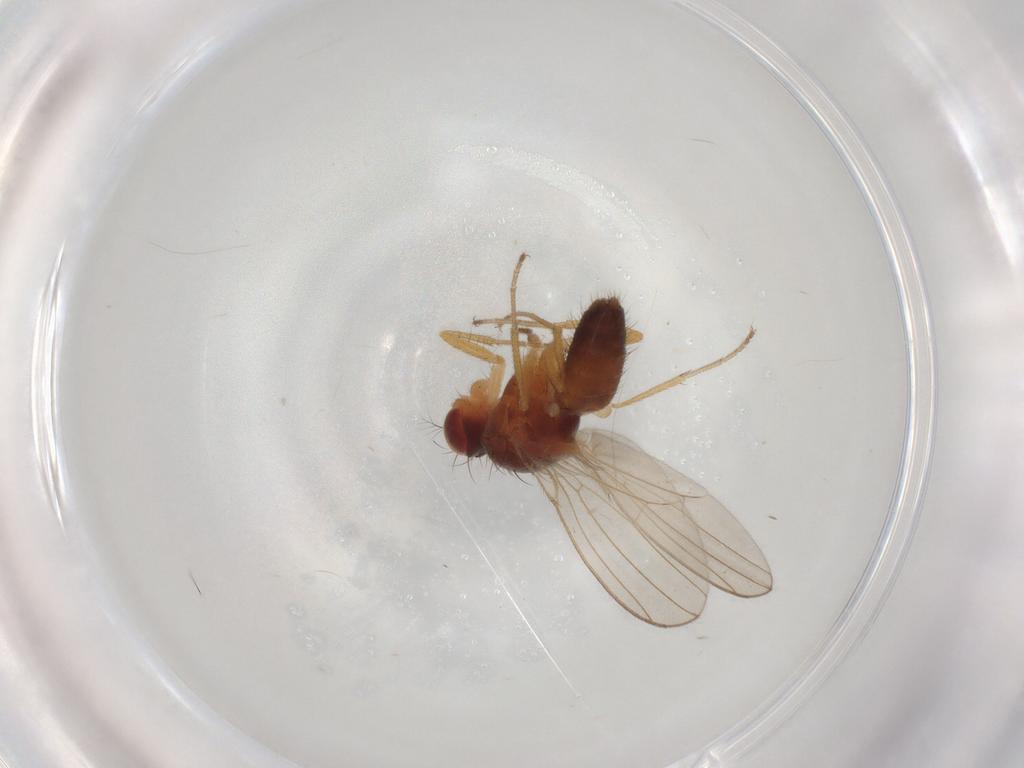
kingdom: Animalia
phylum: Arthropoda
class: Insecta
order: Diptera
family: Drosophilidae
